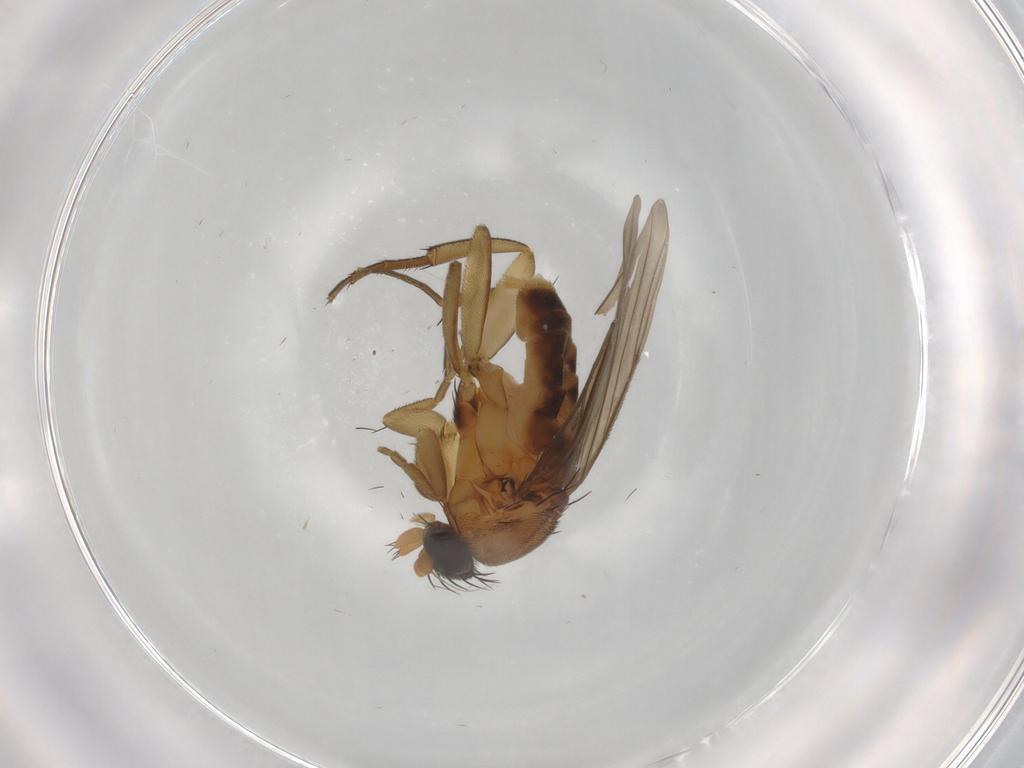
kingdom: Animalia
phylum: Arthropoda
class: Insecta
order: Diptera
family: Phoridae
